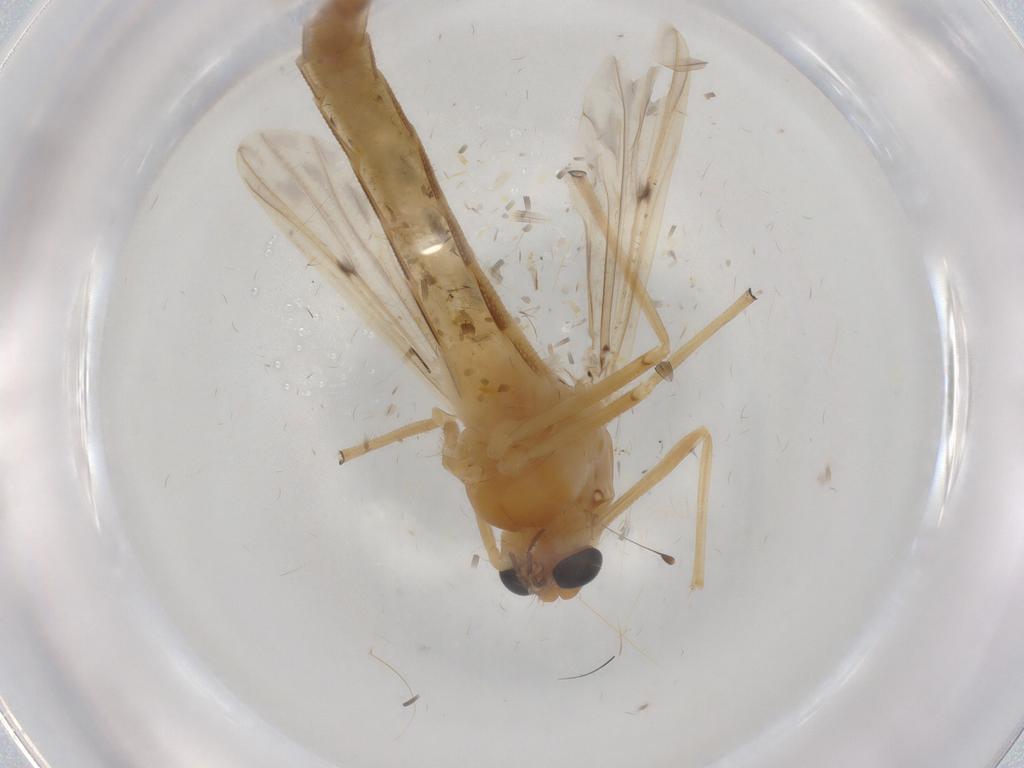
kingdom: Animalia
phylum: Arthropoda
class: Insecta
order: Diptera
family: Chironomidae
